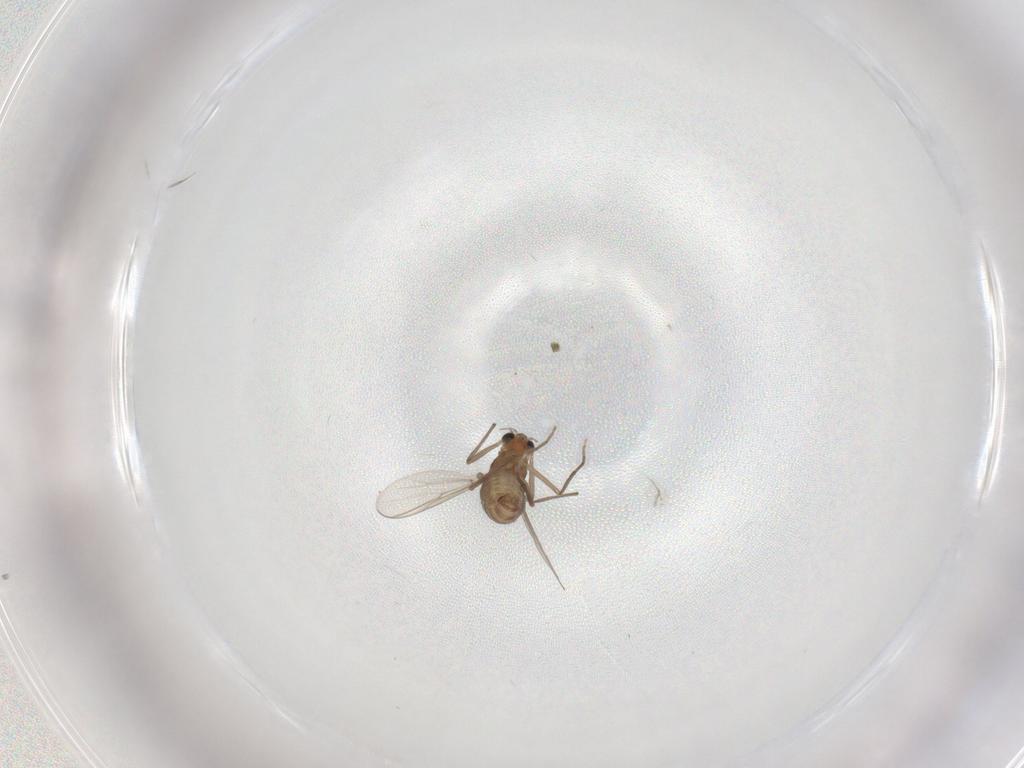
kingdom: Animalia
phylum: Arthropoda
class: Insecta
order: Diptera
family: Chironomidae
